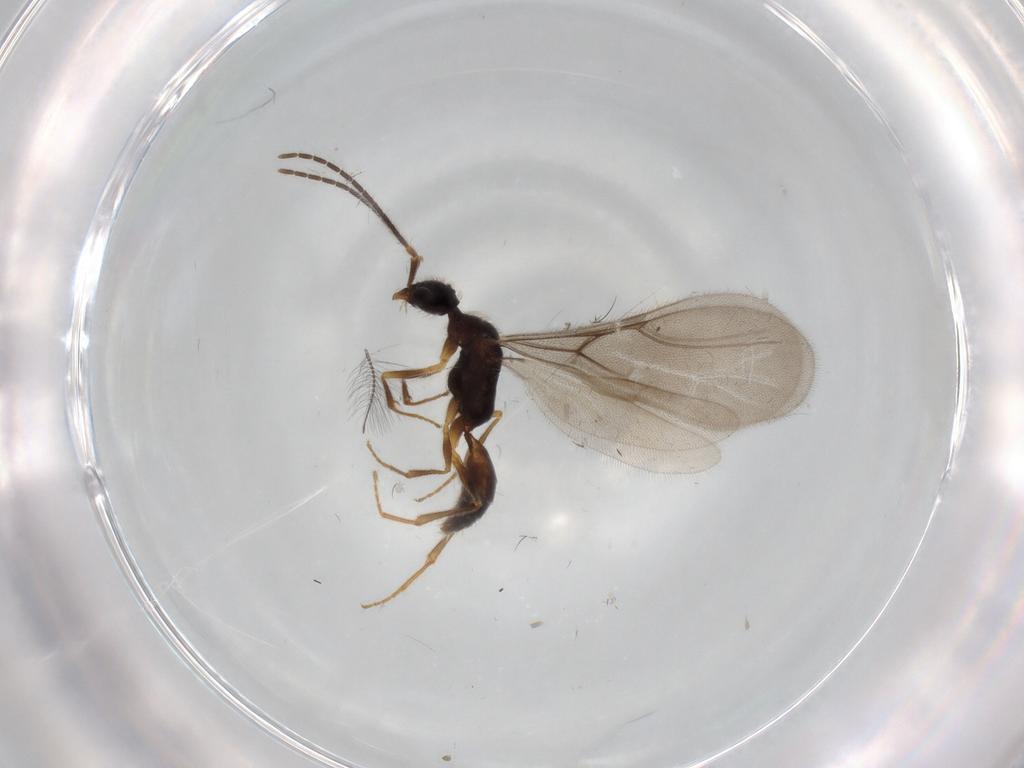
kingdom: Animalia
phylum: Arthropoda
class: Insecta
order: Hymenoptera
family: Bethylidae
